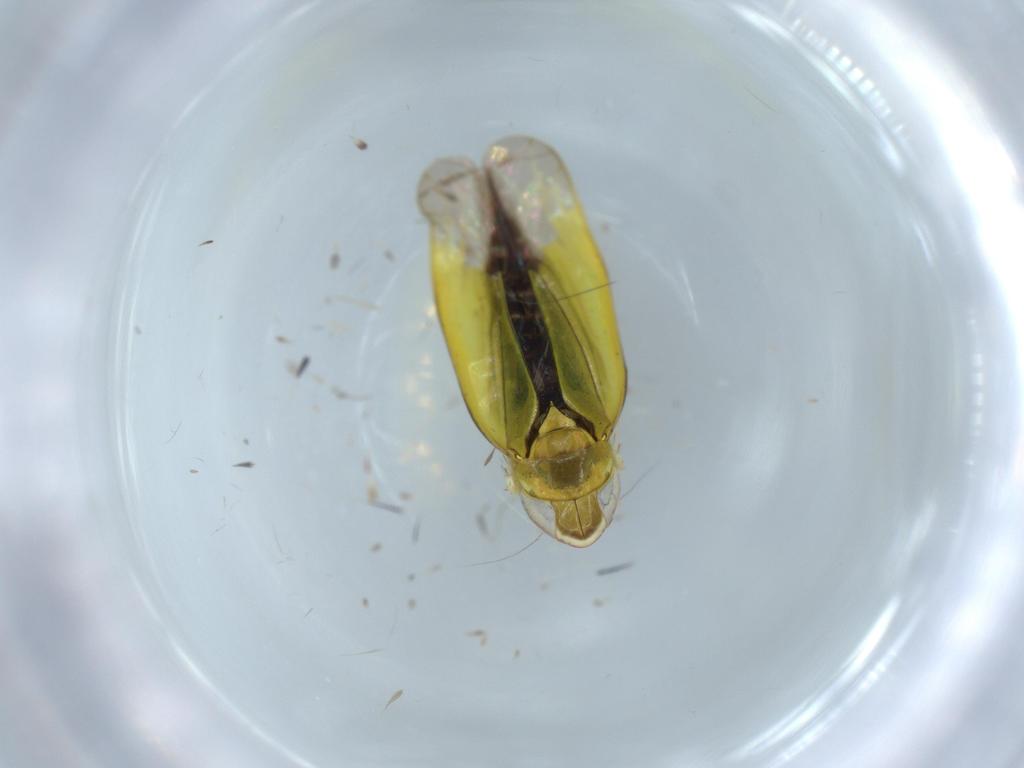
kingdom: Animalia
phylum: Arthropoda
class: Insecta
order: Hemiptera
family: Cicadellidae
